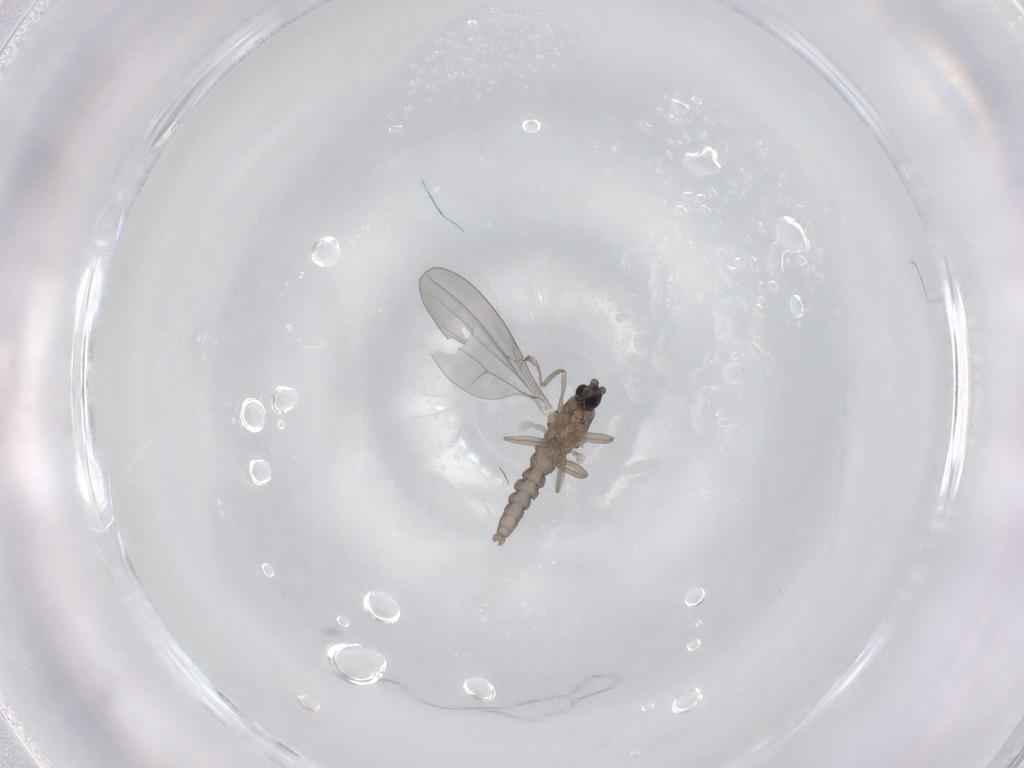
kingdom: Animalia
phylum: Arthropoda
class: Insecta
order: Diptera
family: Cecidomyiidae
